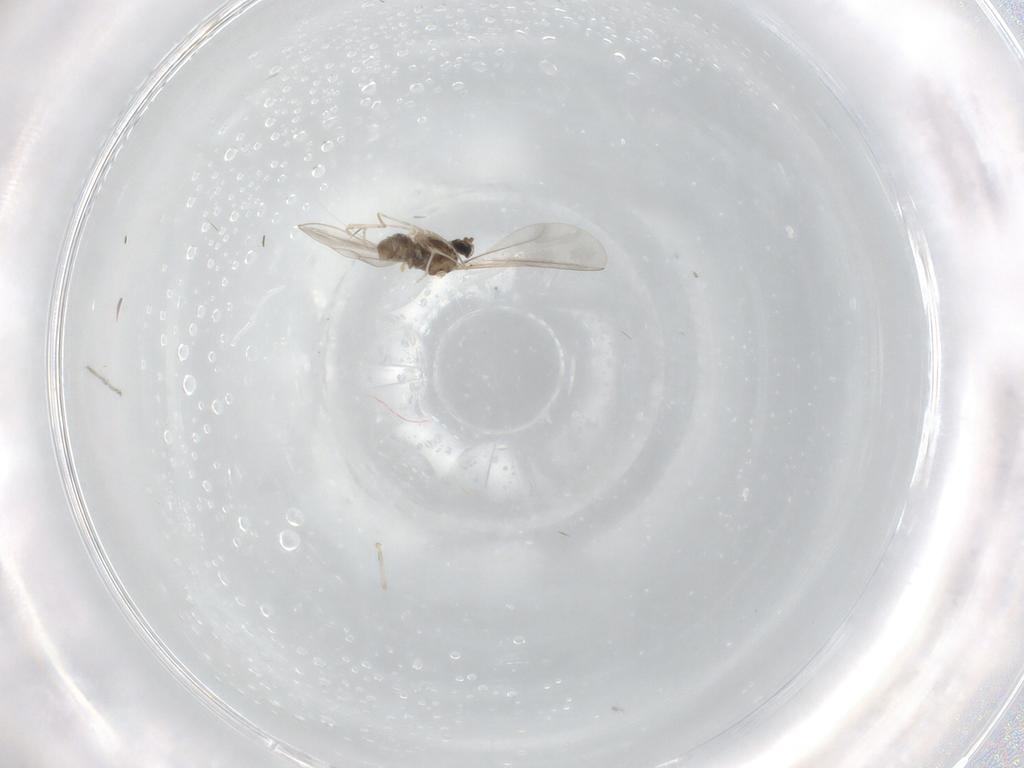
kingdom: Animalia
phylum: Arthropoda
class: Insecta
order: Diptera
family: Cecidomyiidae
